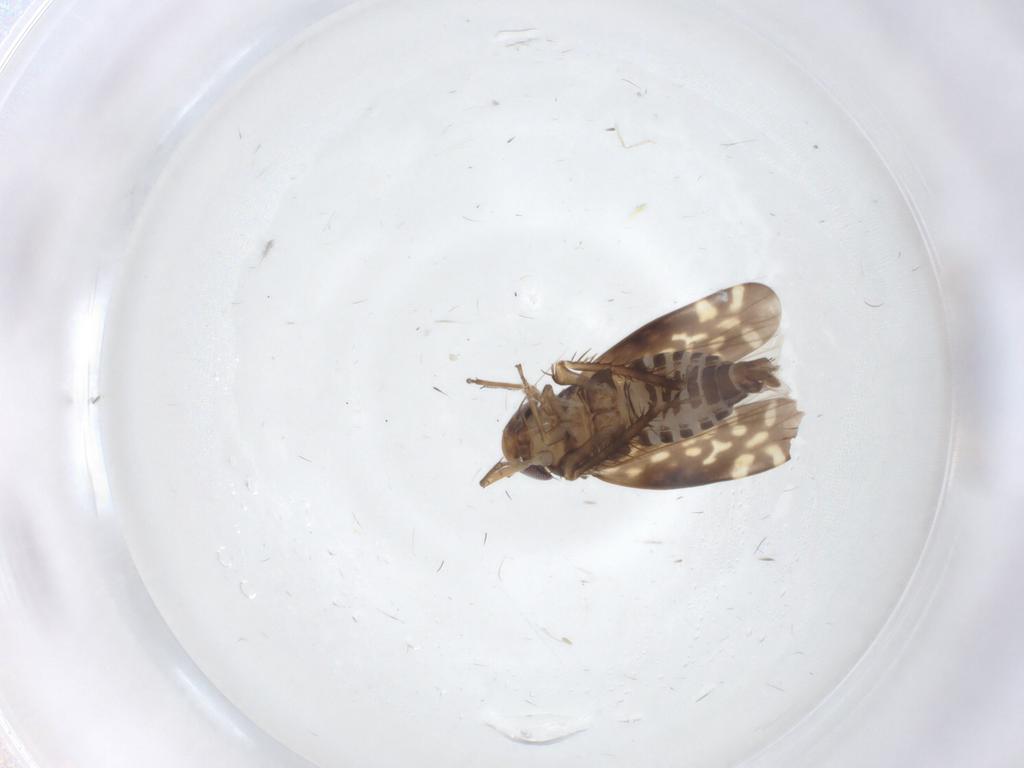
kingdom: Animalia
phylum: Arthropoda
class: Insecta
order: Hemiptera
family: Cicadellidae
